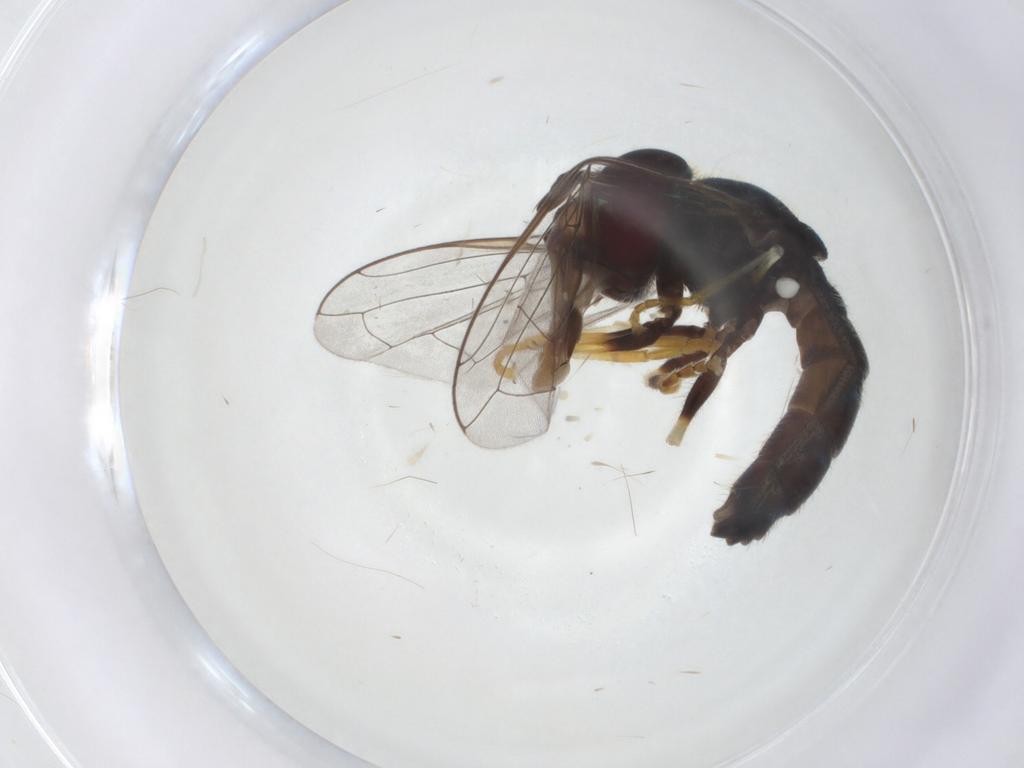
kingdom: Animalia
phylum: Arthropoda
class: Insecta
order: Diptera
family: Syrphidae
